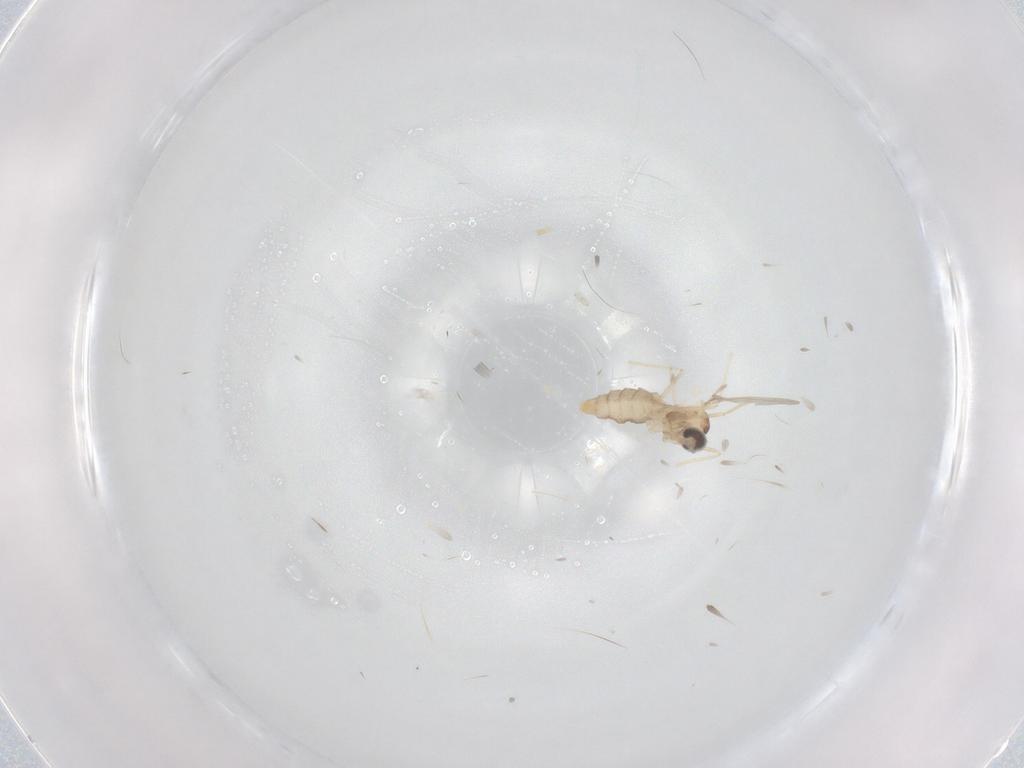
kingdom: Animalia
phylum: Arthropoda
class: Insecta
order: Diptera
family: Cecidomyiidae
